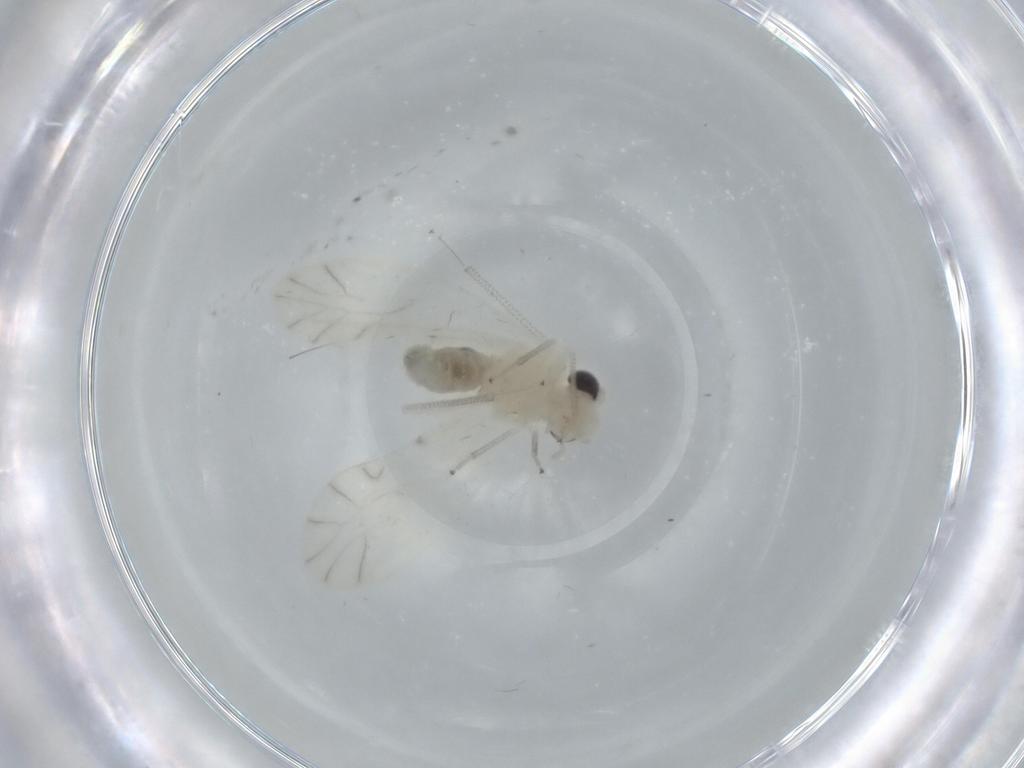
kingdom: Animalia
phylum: Arthropoda
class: Insecta
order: Psocodea
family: Caeciliusidae
